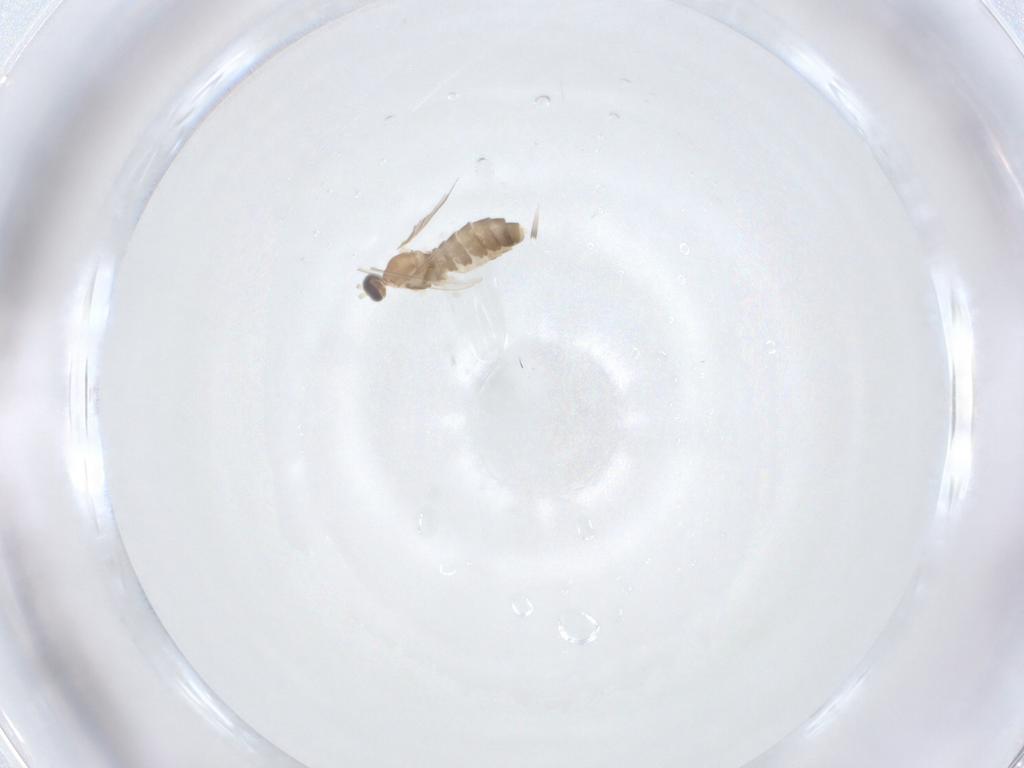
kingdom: Animalia
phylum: Arthropoda
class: Insecta
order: Diptera
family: Cecidomyiidae
